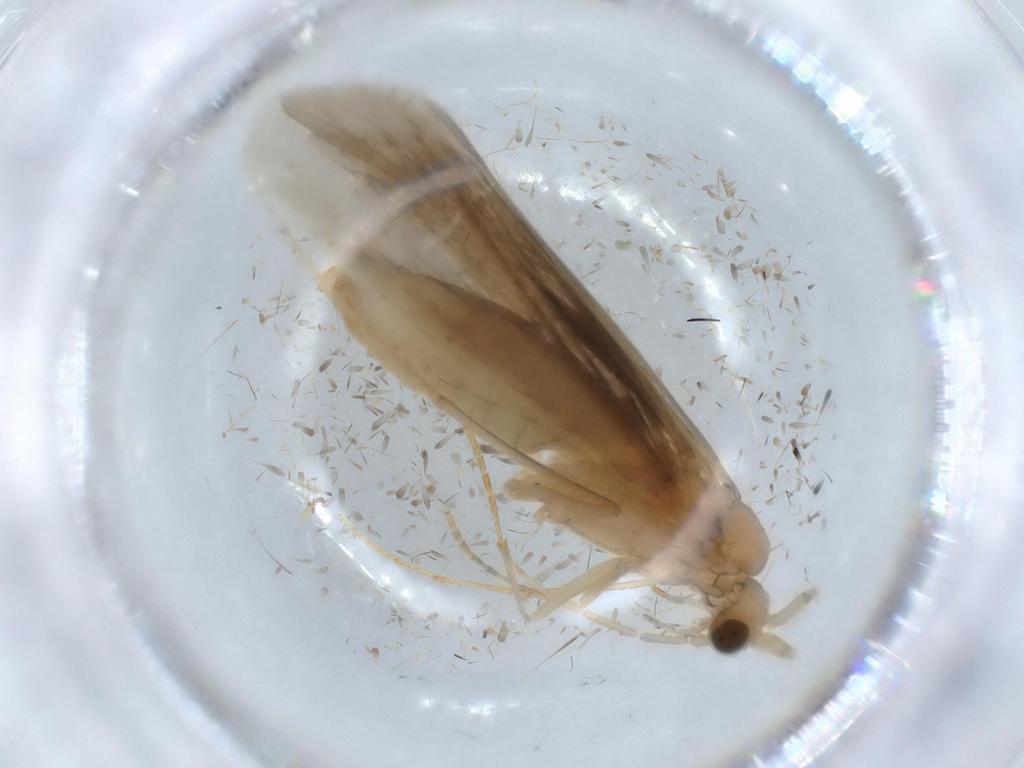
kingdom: Animalia
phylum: Arthropoda
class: Insecta
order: Trichoptera
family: Leptoceridae
